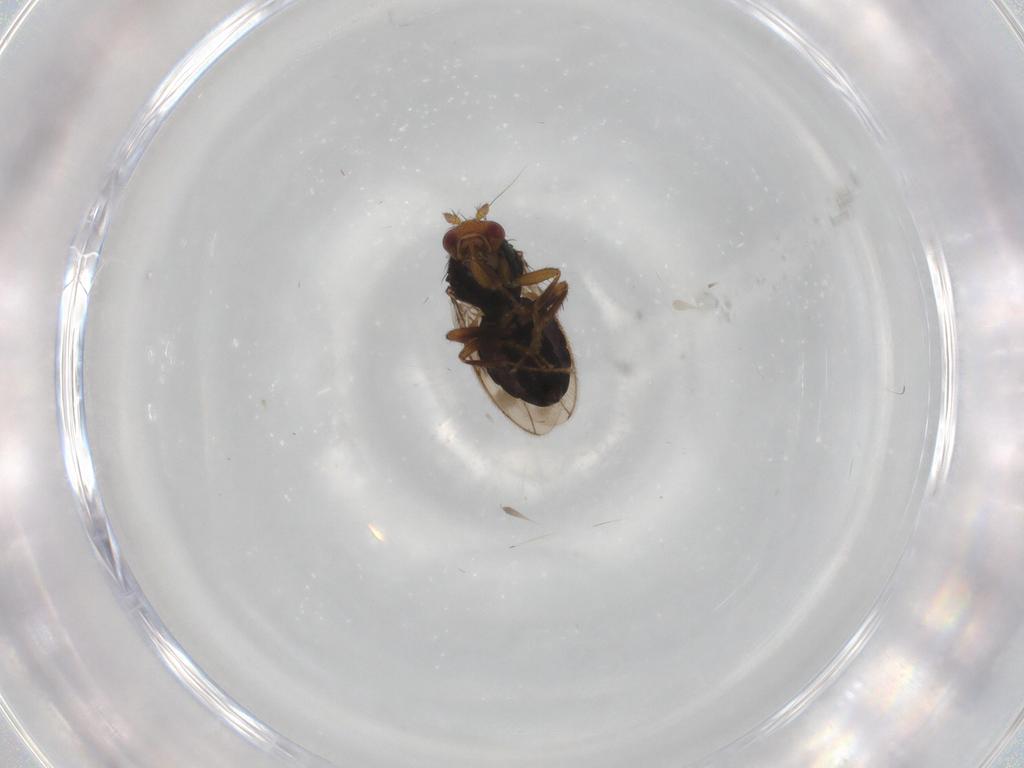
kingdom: Animalia
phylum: Arthropoda
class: Insecta
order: Diptera
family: Sphaeroceridae
